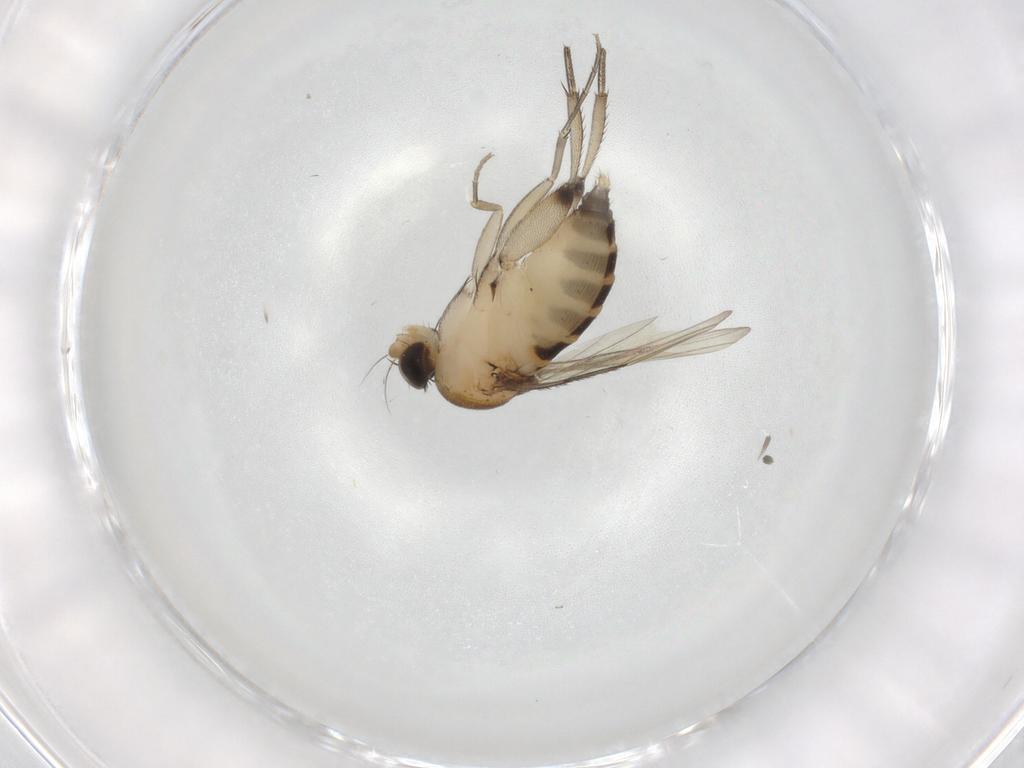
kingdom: Animalia
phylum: Arthropoda
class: Insecta
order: Diptera
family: Phoridae
